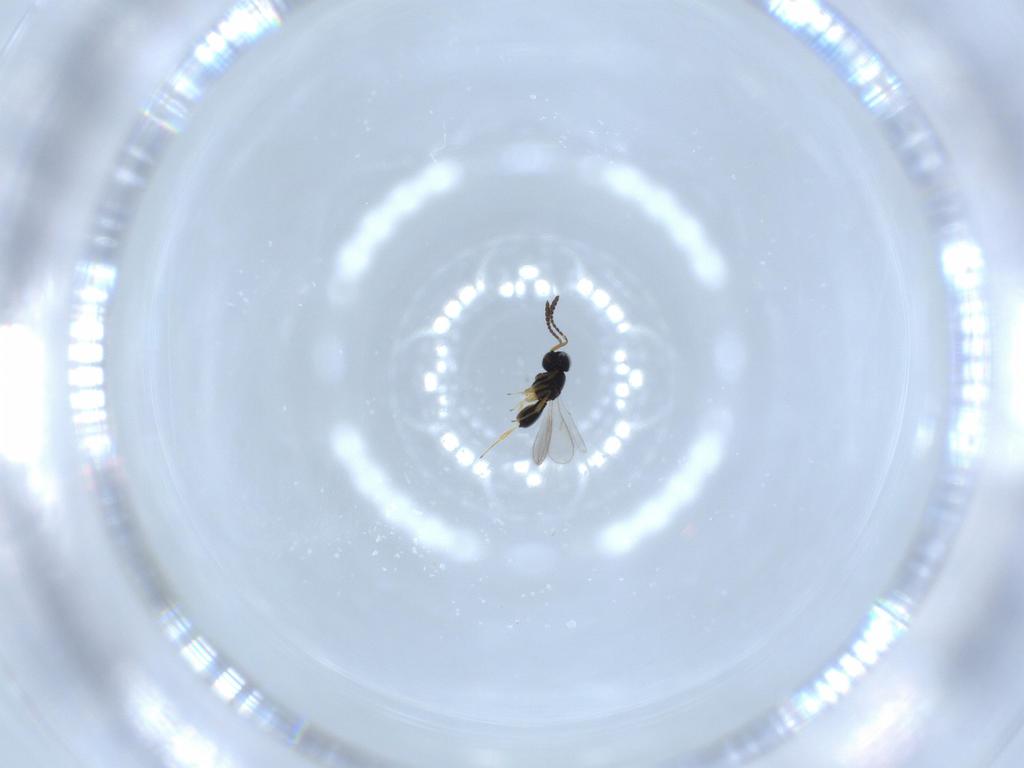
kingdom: Animalia
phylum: Arthropoda
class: Insecta
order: Hymenoptera
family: Scelionidae
